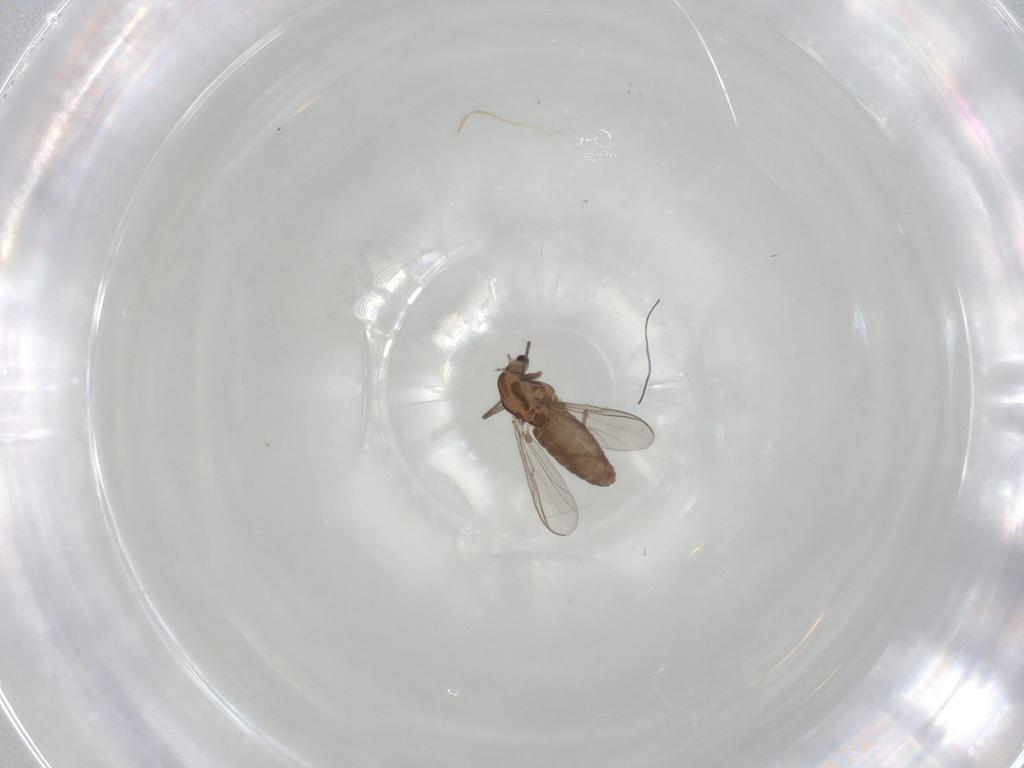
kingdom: Animalia
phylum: Arthropoda
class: Insecta
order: Diptera
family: Chironomidae
